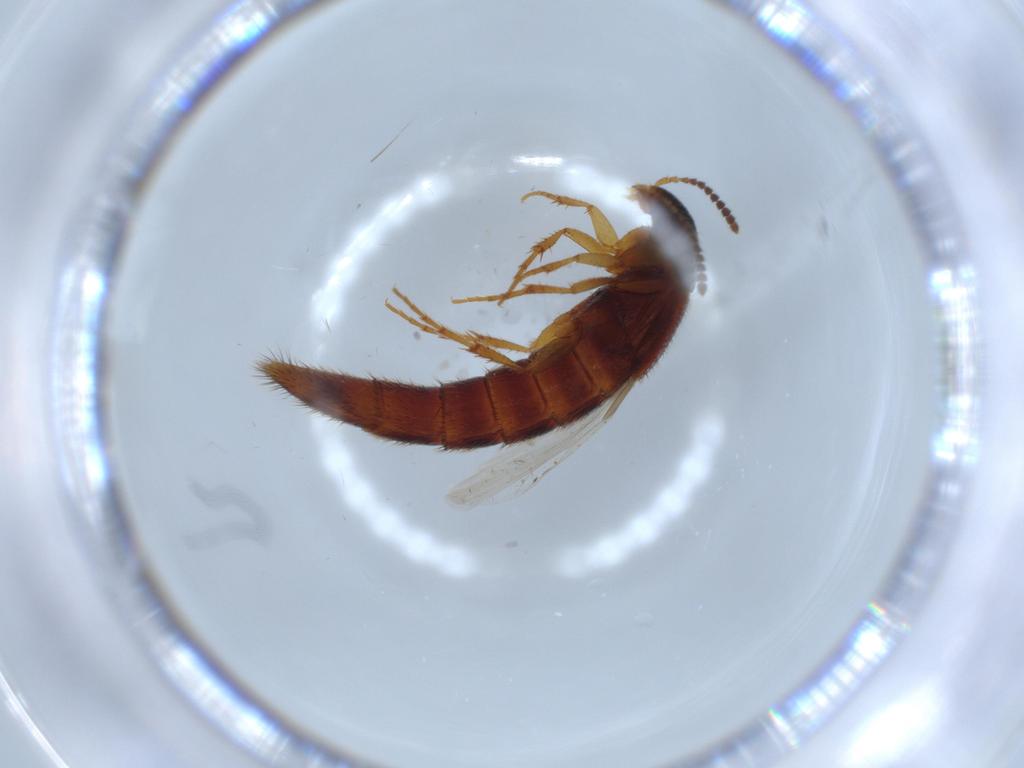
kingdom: Animalia
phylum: Arthropoda
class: Insecta
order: Coleoptera
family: Staphylinidae
